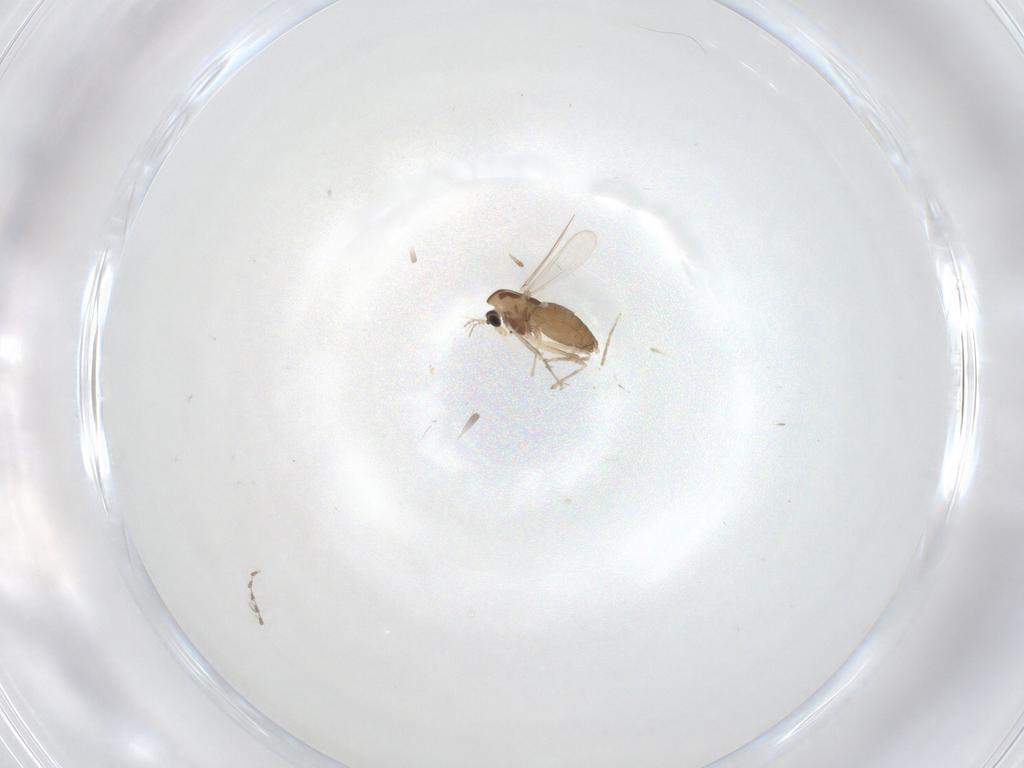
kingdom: Animalia
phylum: Arthropoda
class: Insecta
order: Diptera
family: Chironomidae
